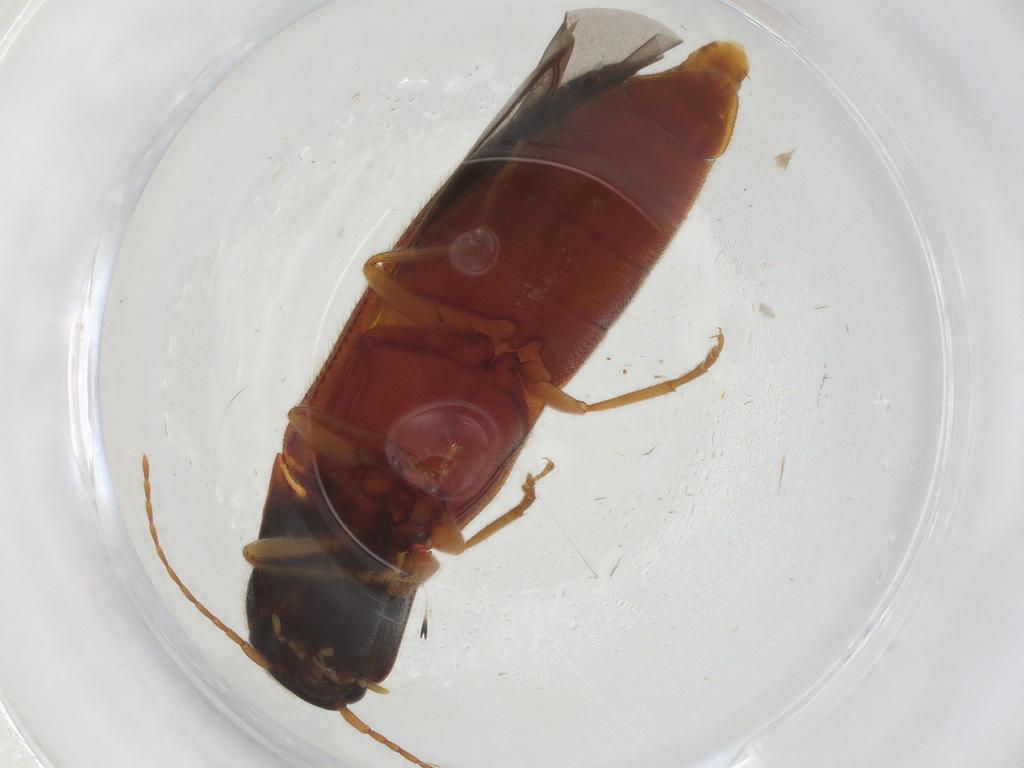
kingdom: Animalia
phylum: Arthropoda
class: Insecta
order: Coleoptera
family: Elateridae
